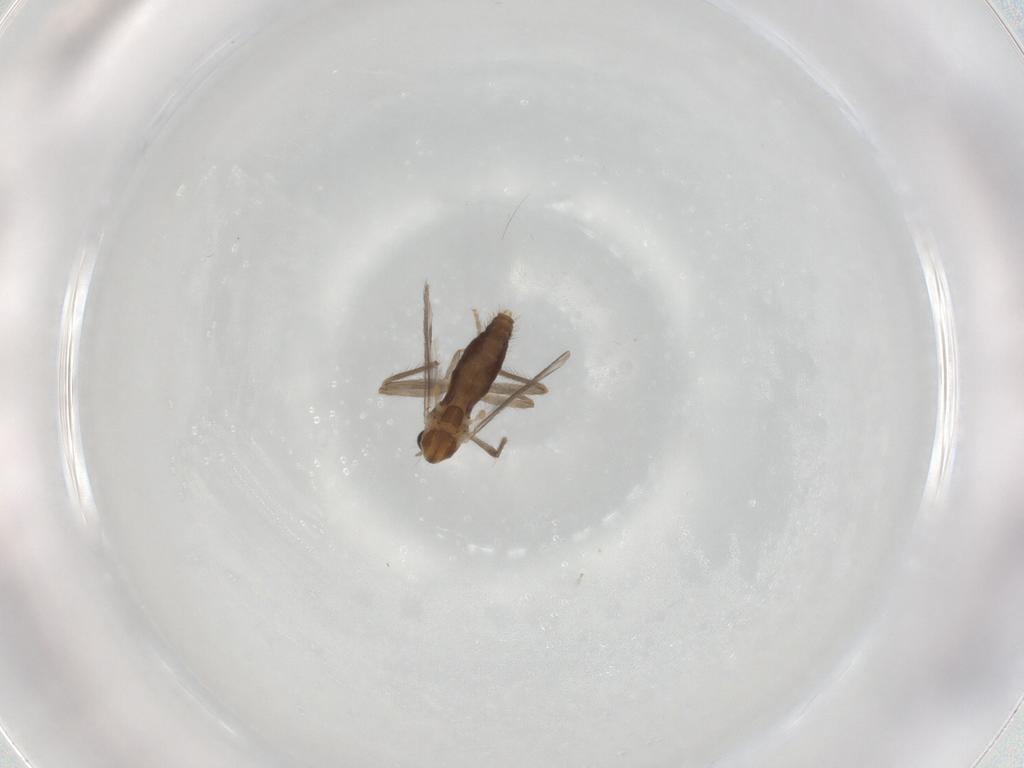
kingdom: Animalia
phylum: Arthropoda
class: Insecta
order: Diptera
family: Chironomidae
